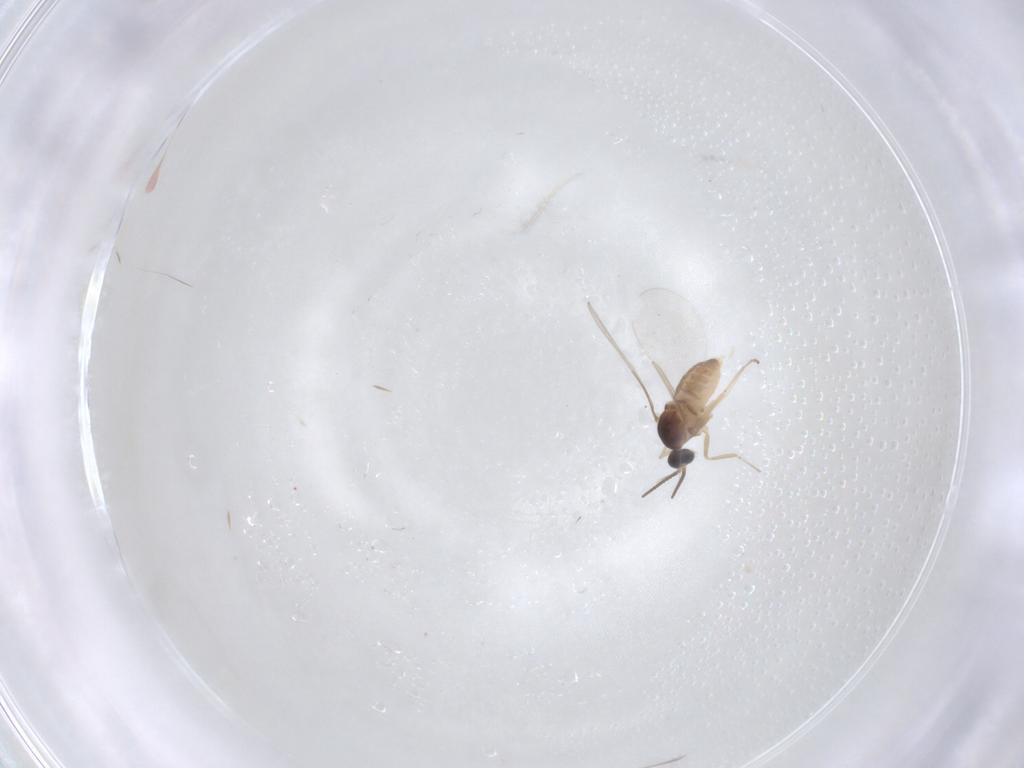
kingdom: Animalia
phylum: Arthropoda
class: Insecta
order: Diptera
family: Cecidomyiidae
